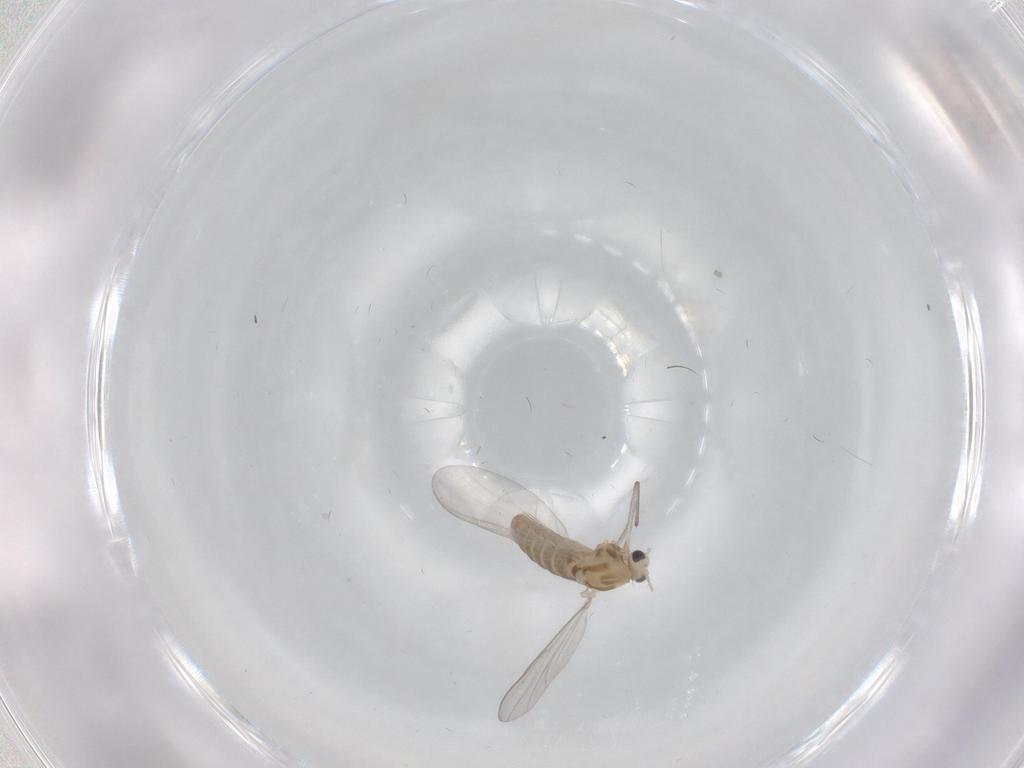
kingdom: Animalia
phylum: Arthropoda
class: Insecta
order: Diptera
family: Chironomidae
